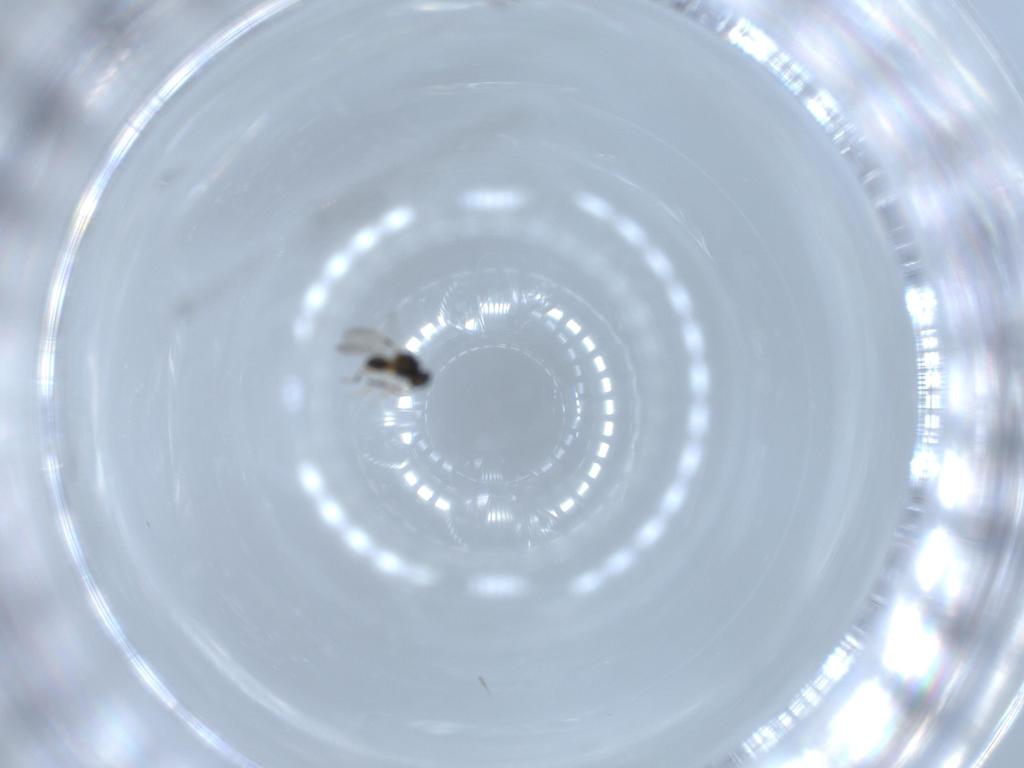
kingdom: Animalia
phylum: Arthropoda
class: Insecta
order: Hymenoptera
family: Platygastridae
